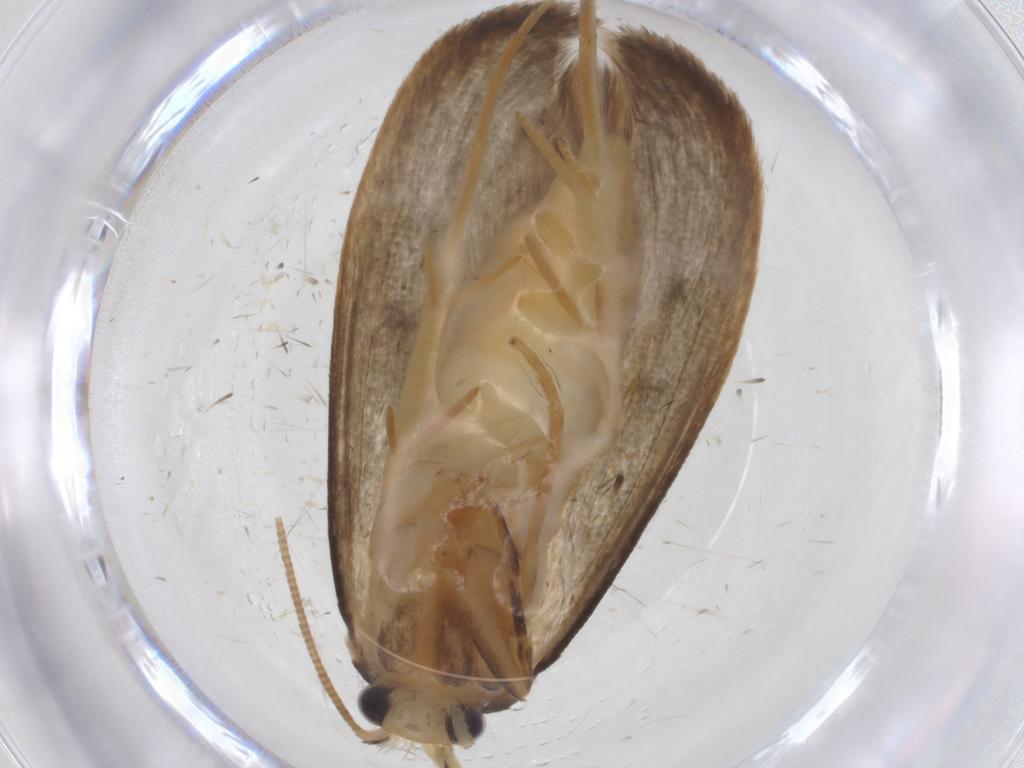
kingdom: Animalia
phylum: Arthropoda
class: Insecta
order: Lepidoptera
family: Tineidae
